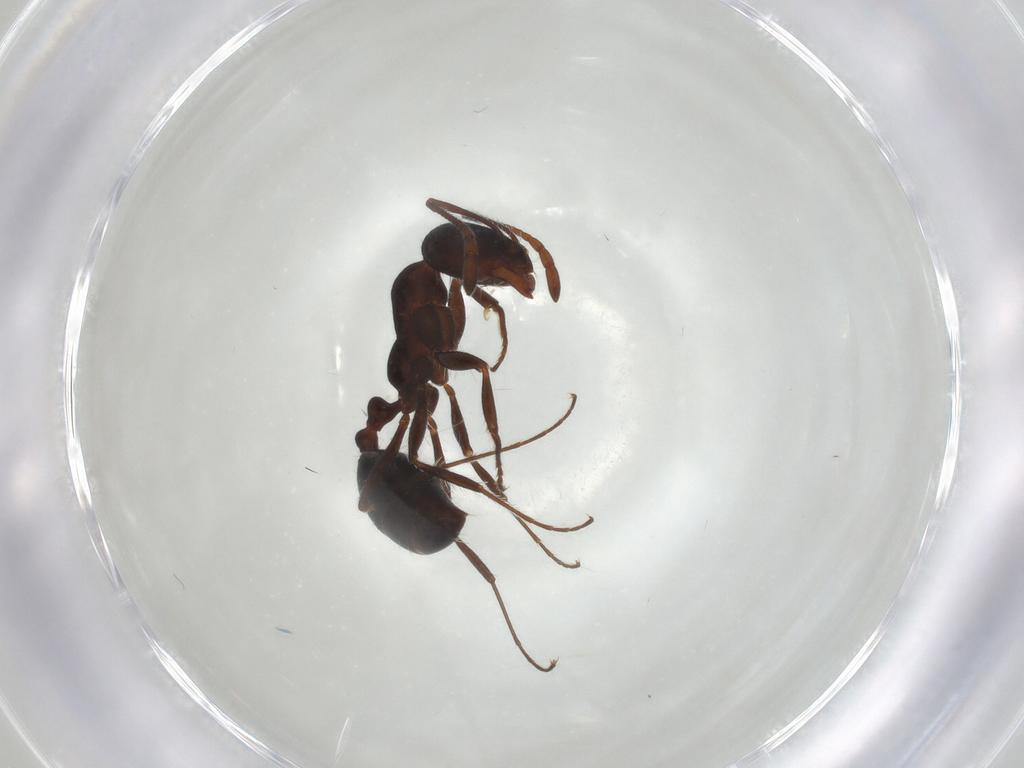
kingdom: Animalia
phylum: Arthropoda
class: Insecta
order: Hymenoptera
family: Formicidae
